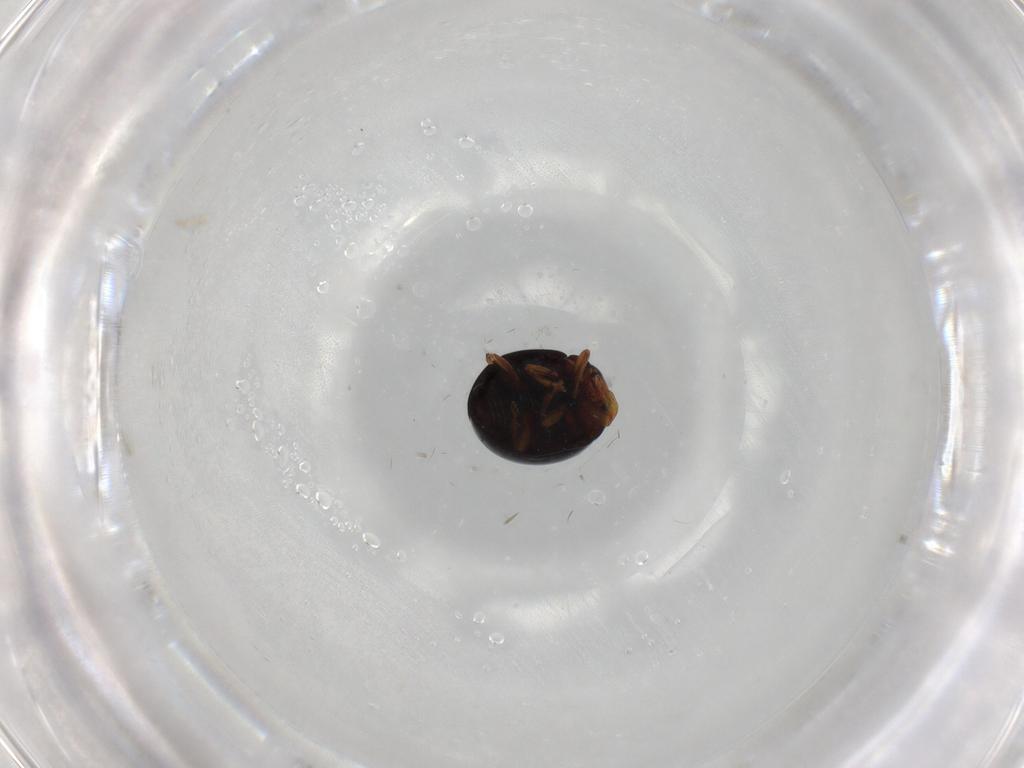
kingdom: Animalia
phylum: Arthropoda
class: Insecta
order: Coleoptera
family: Coccinellidae
